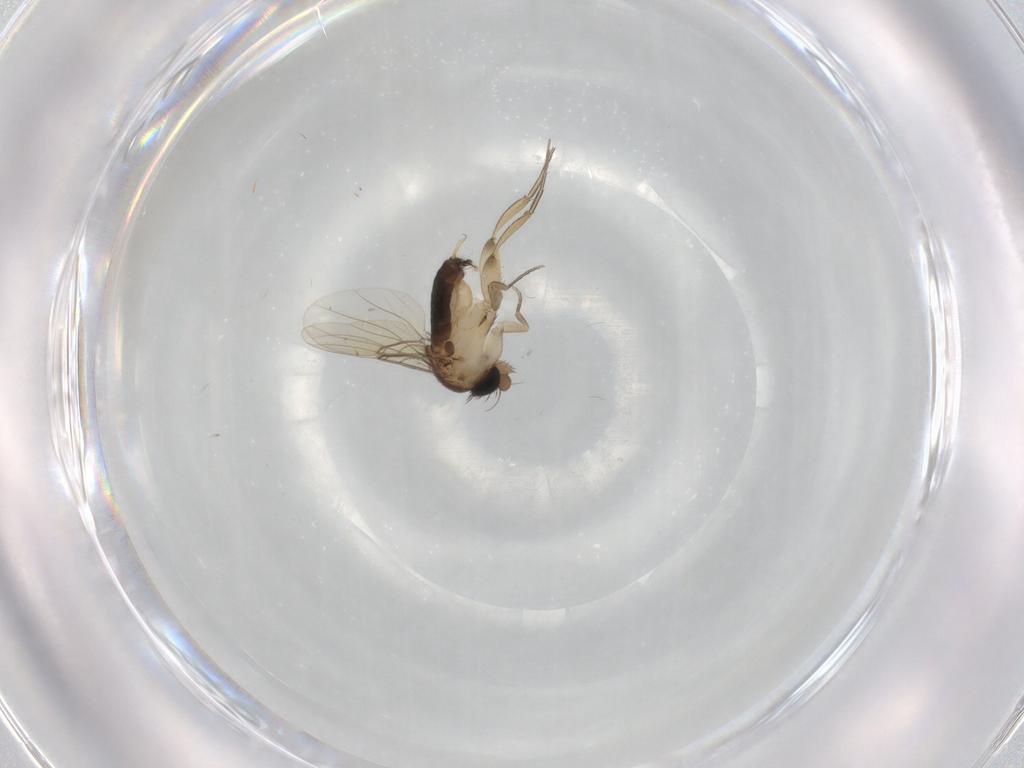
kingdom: Animalia
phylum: Arthropoda
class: Insecta
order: Diptera
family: Phoridae
